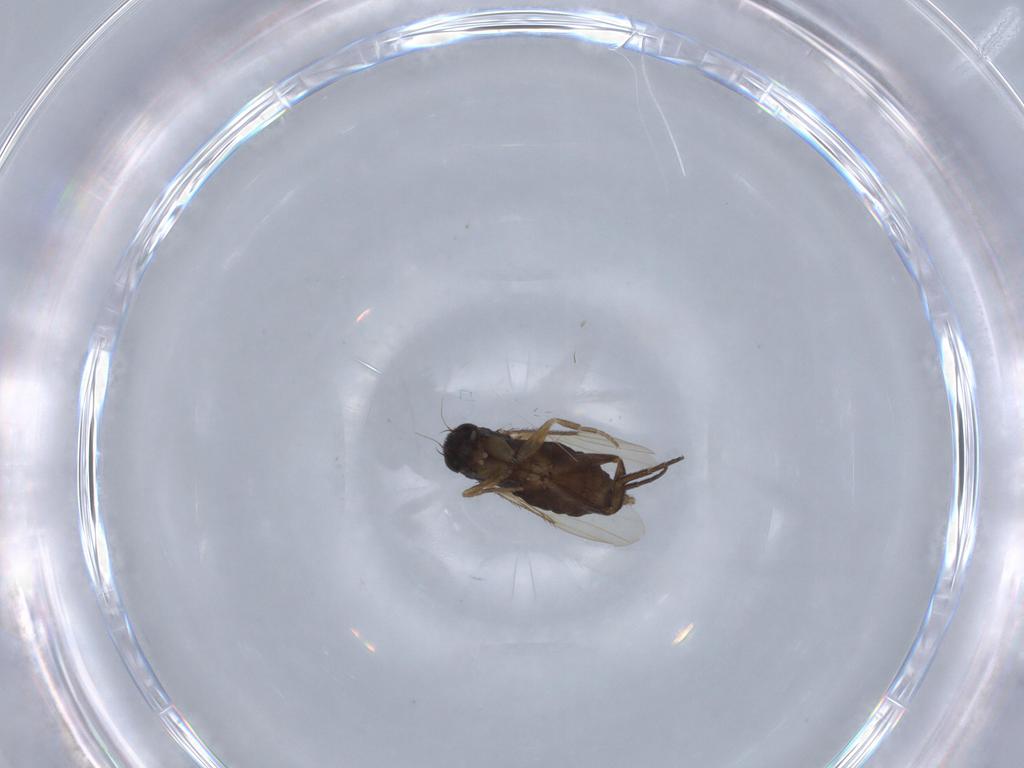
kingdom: Animalia
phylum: Arthropoda
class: Insecta
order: Diptera
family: Phoridae
